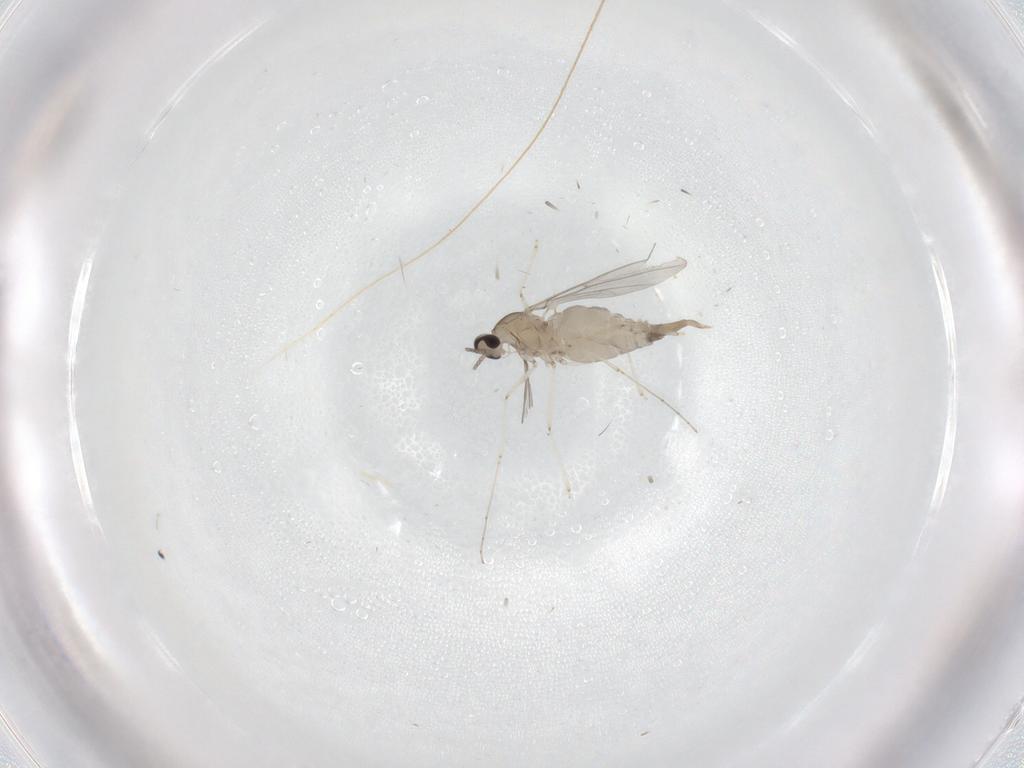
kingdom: Animalia
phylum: Arthropoda
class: Insecta
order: Diptera
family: Cecidomyiidae
